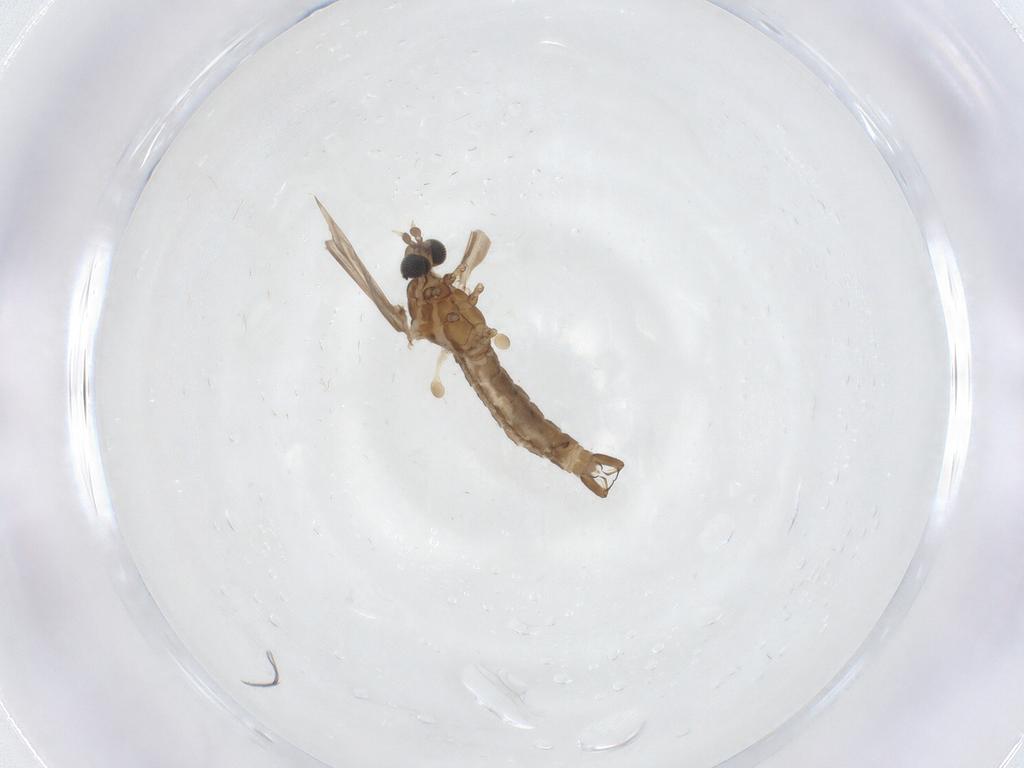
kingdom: Animalia
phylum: Arthropoda
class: Insecta
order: Diptera
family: Limoniidae
